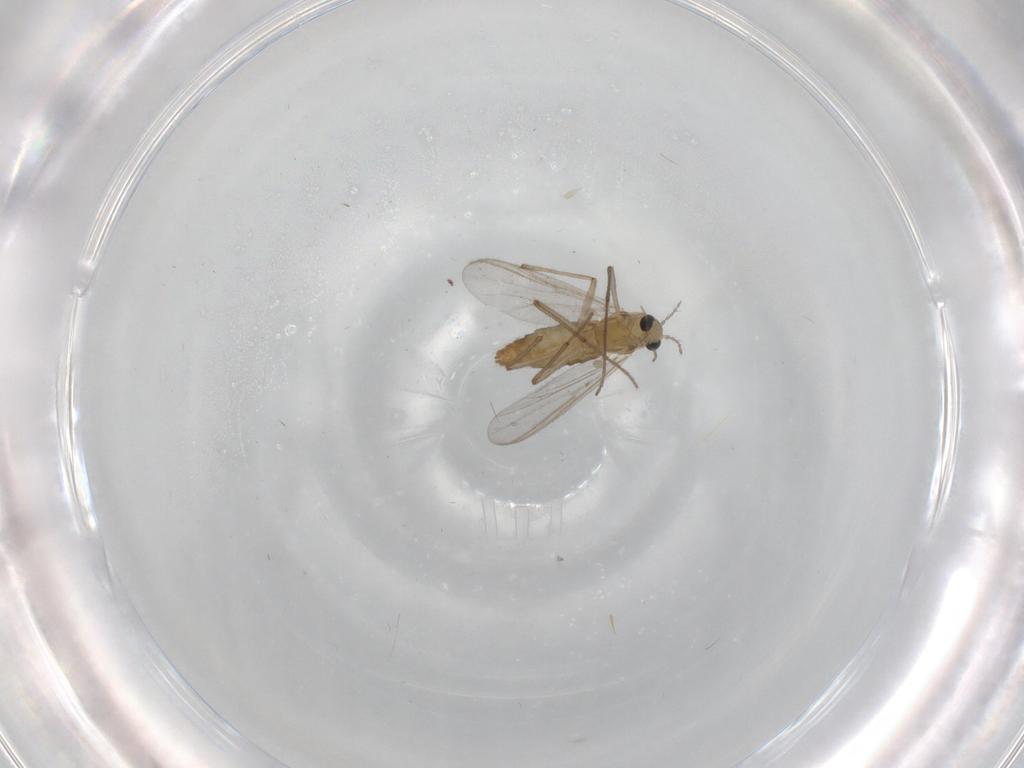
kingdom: Animalia
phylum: Arthropoda
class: Insecta
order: Diptera
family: Chironomidae
